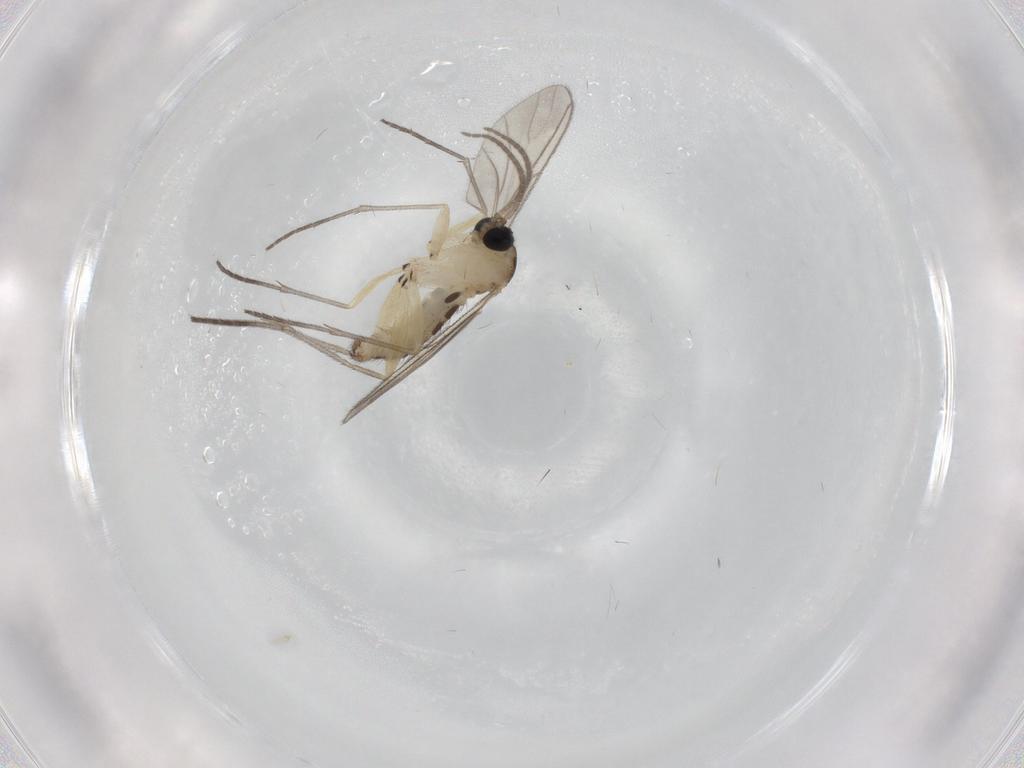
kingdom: Animalia
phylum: Arthropoda
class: Insecta
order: Diptera
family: Sciaridae
